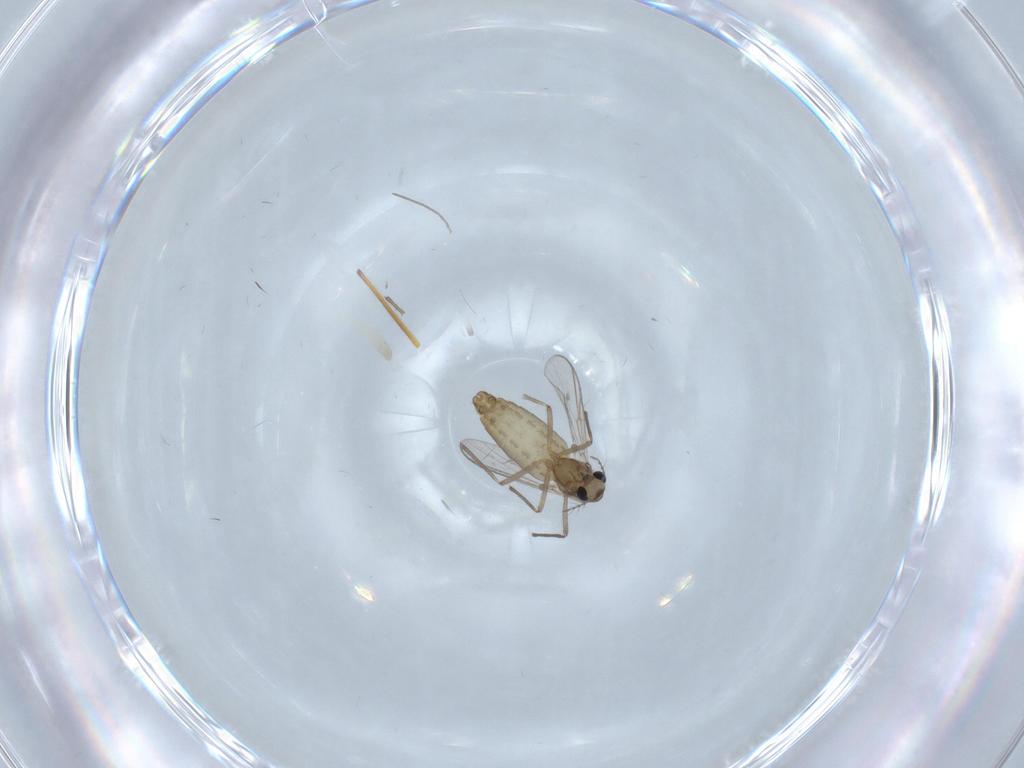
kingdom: Animalia
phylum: Arthropoda
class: Insecta
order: Diptera
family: Chironomidae
